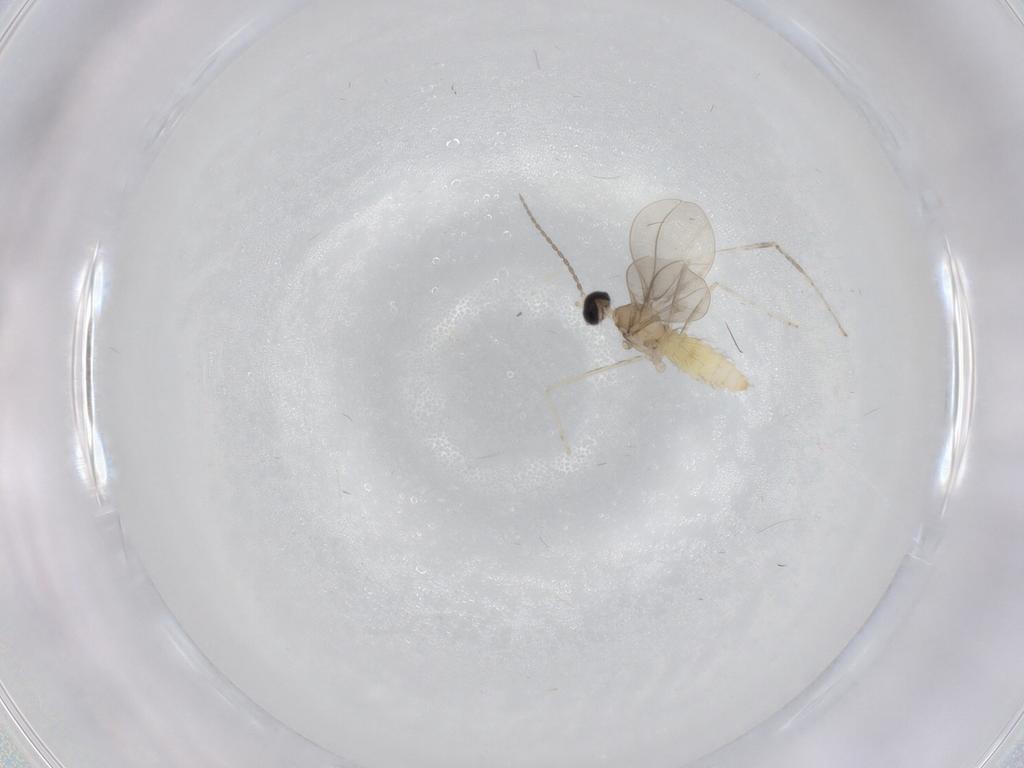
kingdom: Animalia
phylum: Arthropoda
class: Insecta
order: Diptera
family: Cecidomyiidae
